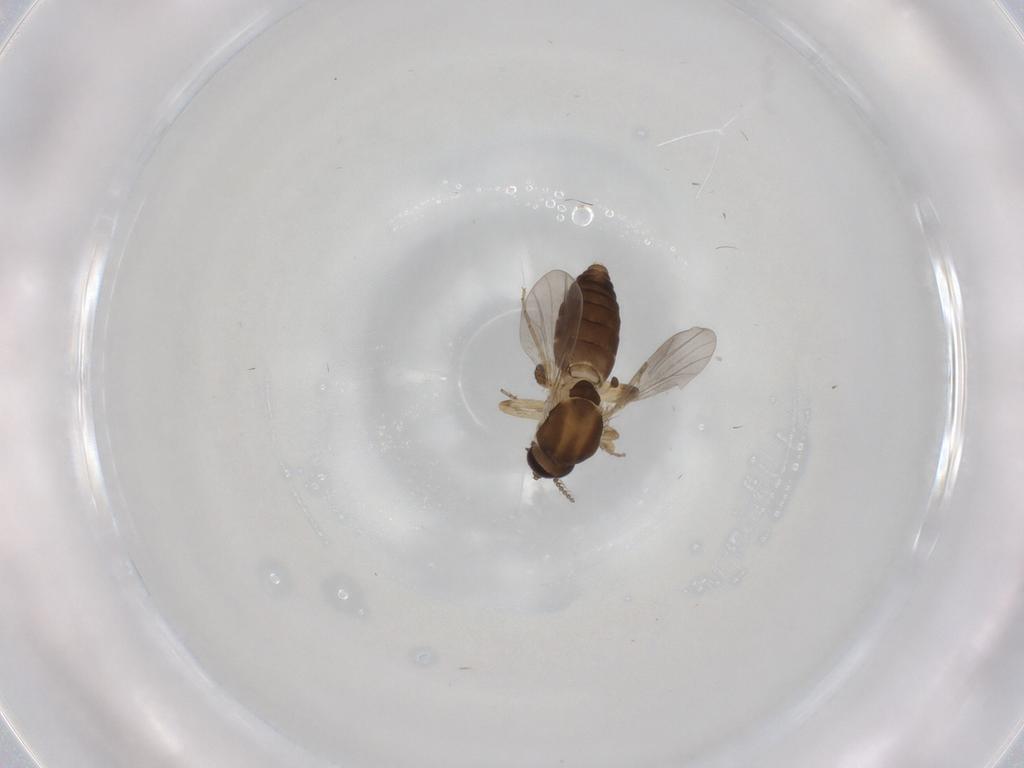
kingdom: Animalia
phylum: Arthropoda
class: Insecta
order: Diptera
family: Ceratopogonidae
